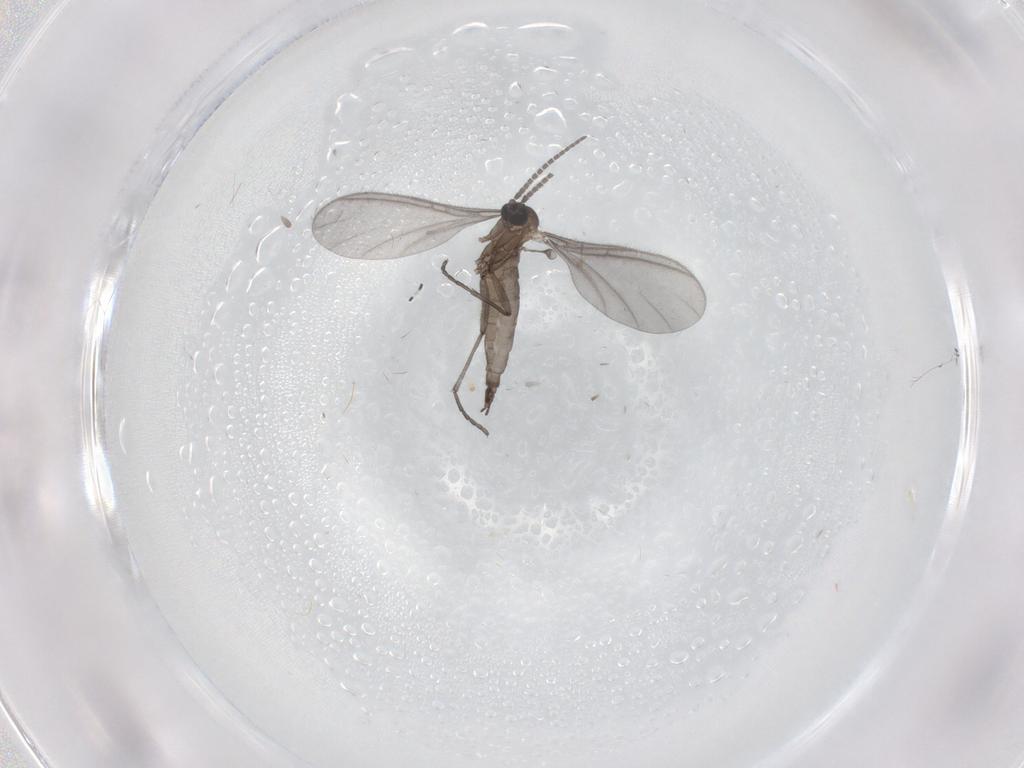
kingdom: Animalia
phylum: Arthropoda
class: Insecta
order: Diptera
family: Sciaridae
